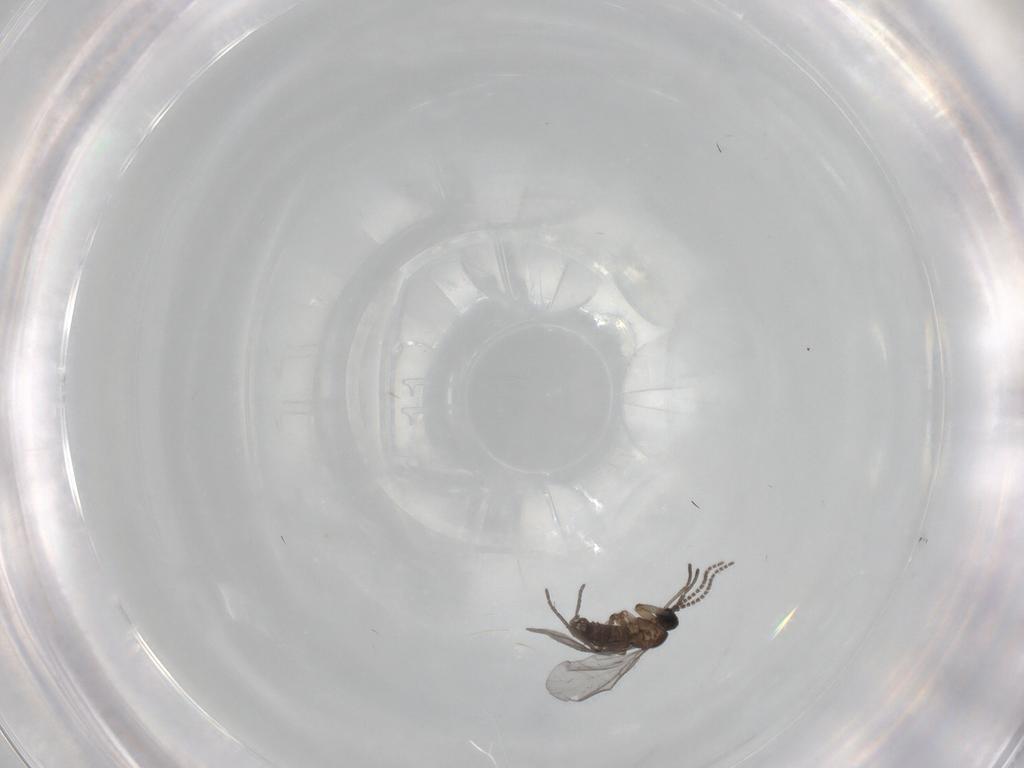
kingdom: Animalia
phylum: Arthropoda
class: Insecta
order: Diptera
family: Dolichopodidae
